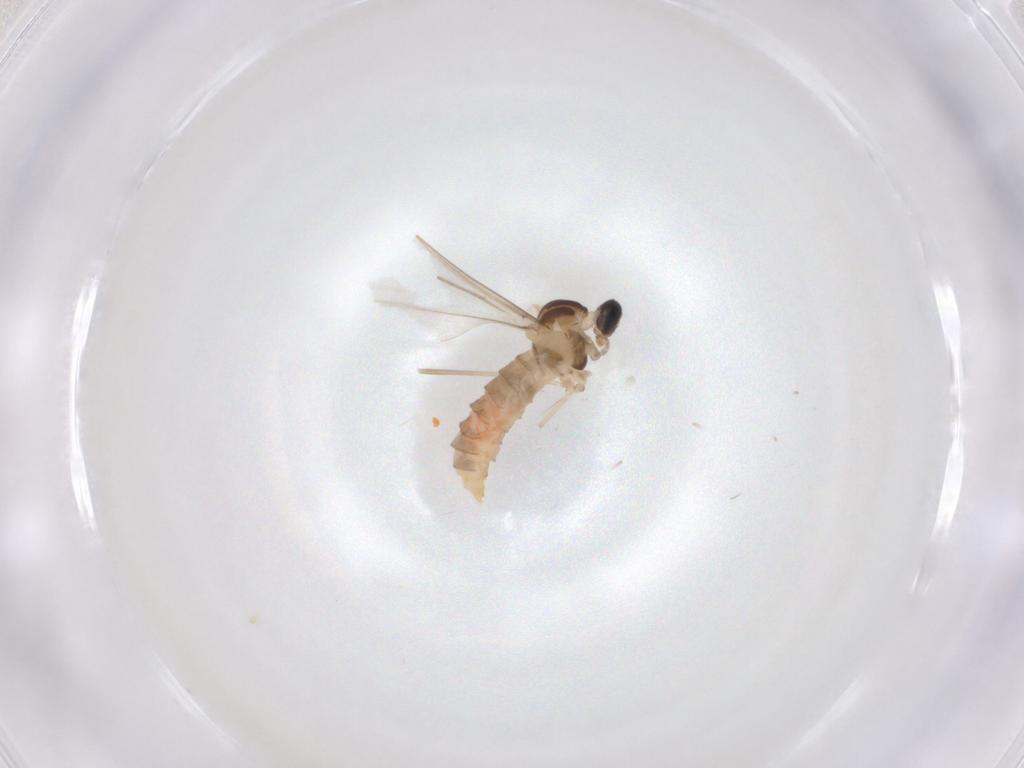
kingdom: Animalia
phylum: Arthropoda
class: Insecta
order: Diptera
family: Cecidomyiidae
